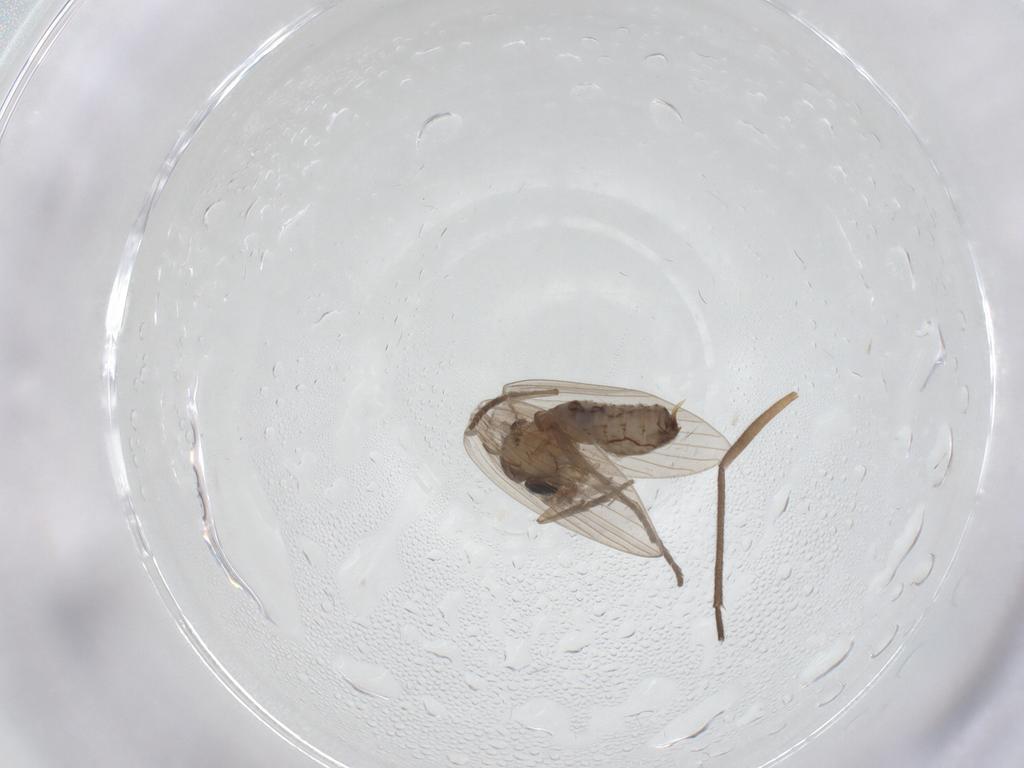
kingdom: Animalia
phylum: Arthropoda
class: Insecta
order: Diptera
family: Psychodidae
